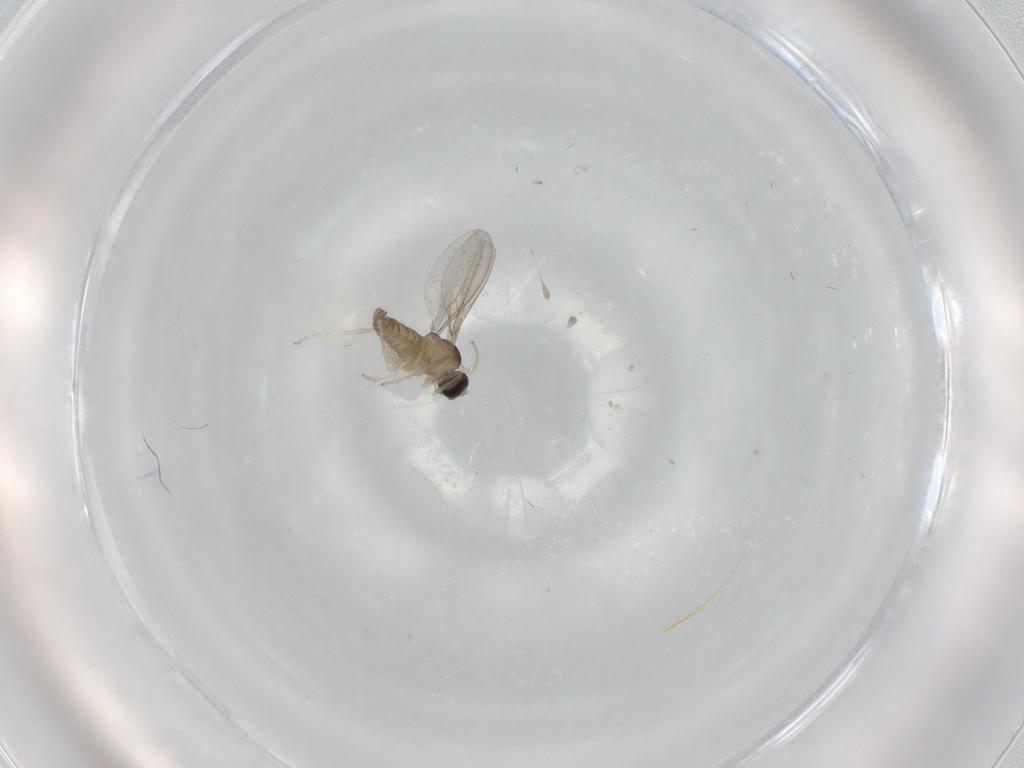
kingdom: Animalia
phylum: Arthropoda
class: Insecta
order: Diptera
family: Cecidomyiidae
